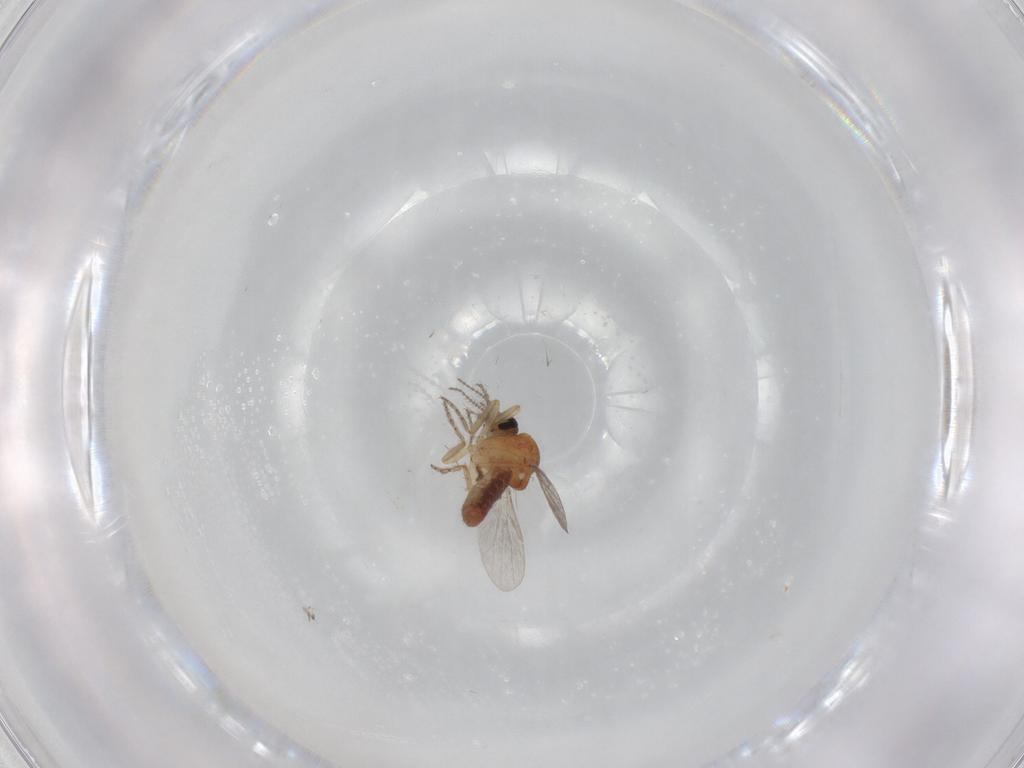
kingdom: Animalia
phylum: Arthropoda
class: Insecta
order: Diptera
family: Ceratopogonidae
